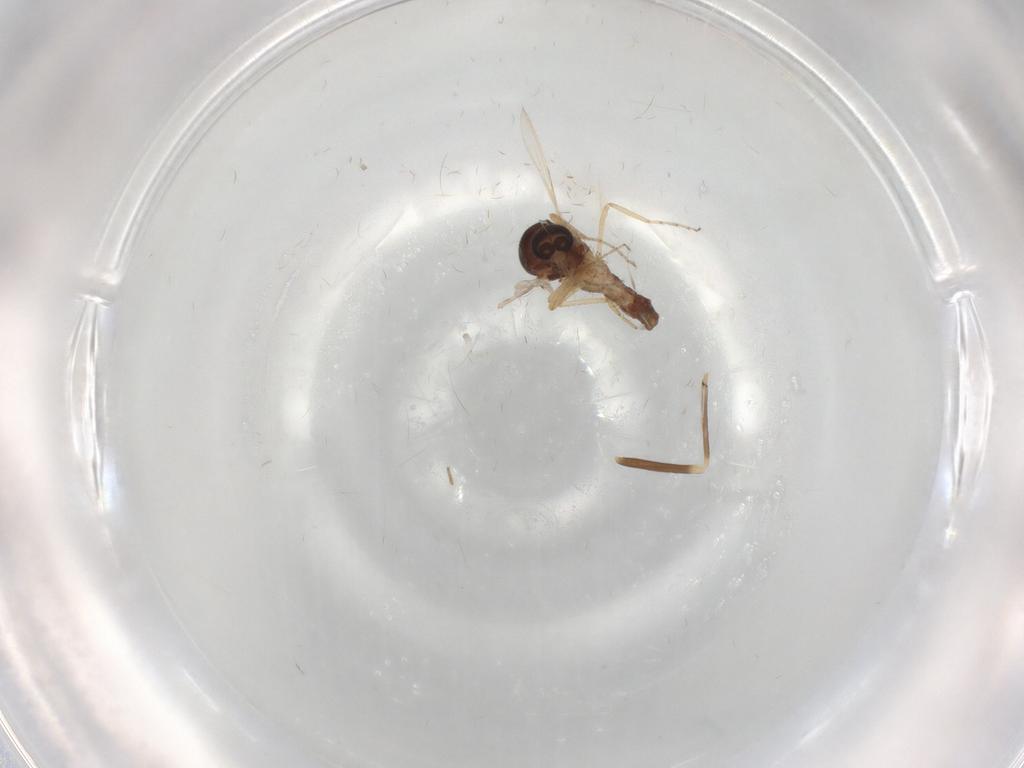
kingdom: Animalia
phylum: Arthropoda
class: Insecta
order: Diptera
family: Ceratopogonidae
